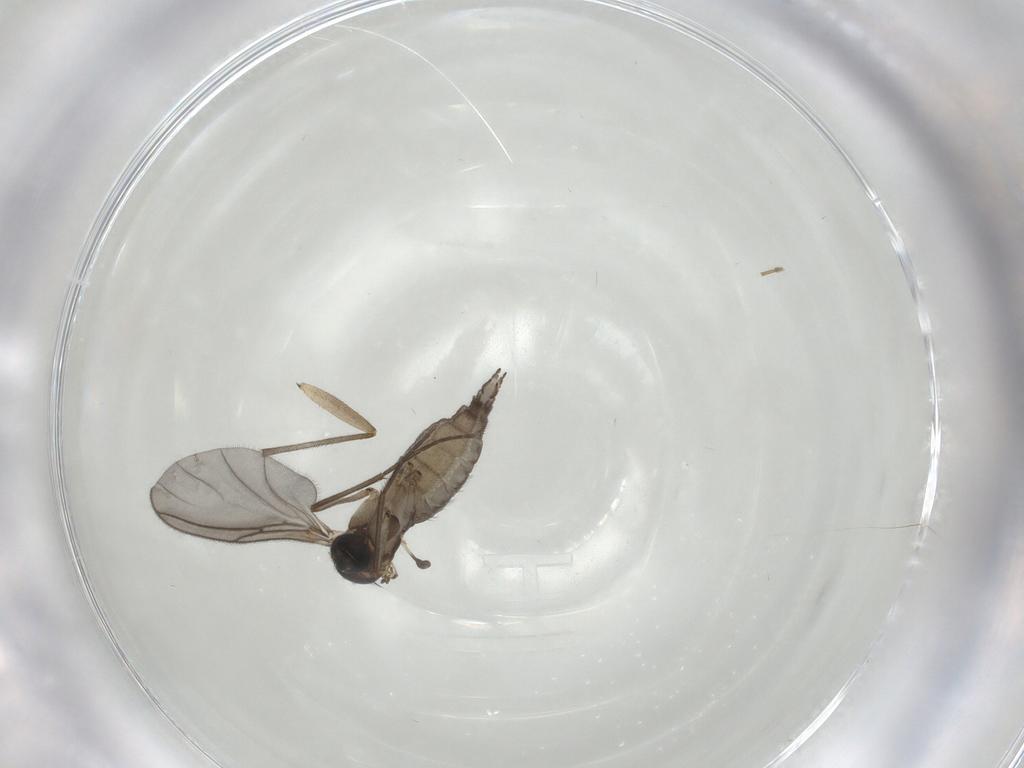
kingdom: Animalia
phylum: Arthropoda
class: Insecta
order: Diptera
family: Sciaridae
